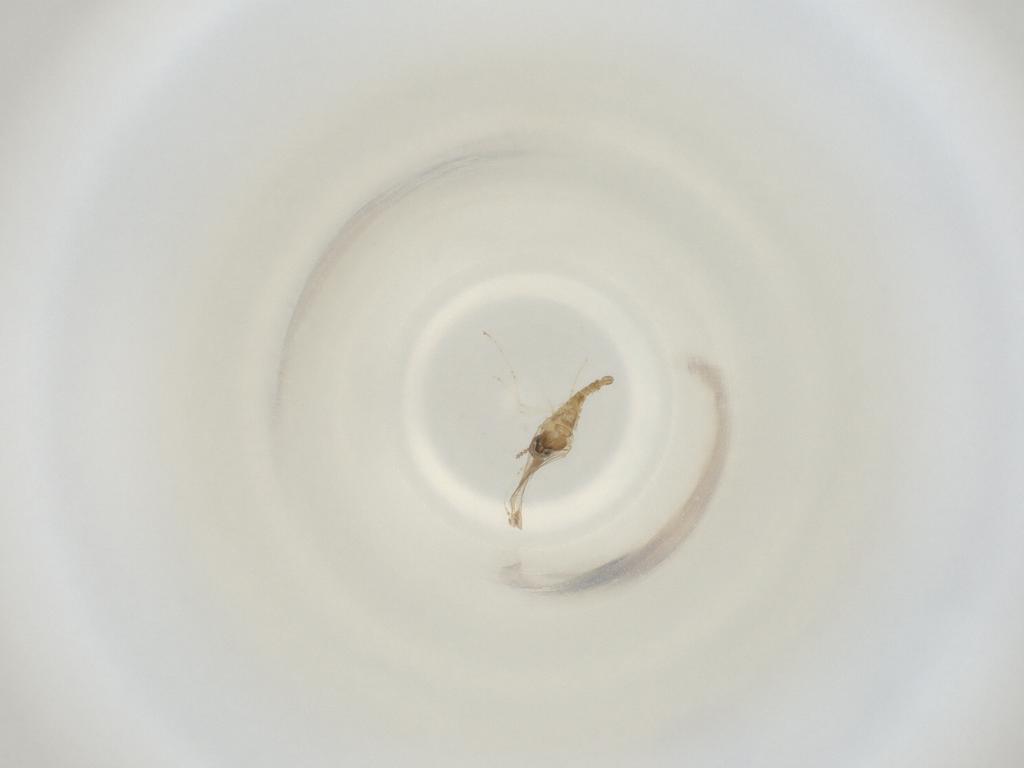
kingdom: Animalia
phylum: Arthropoda
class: Insecta
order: Diptera
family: Cecidomyiidae
